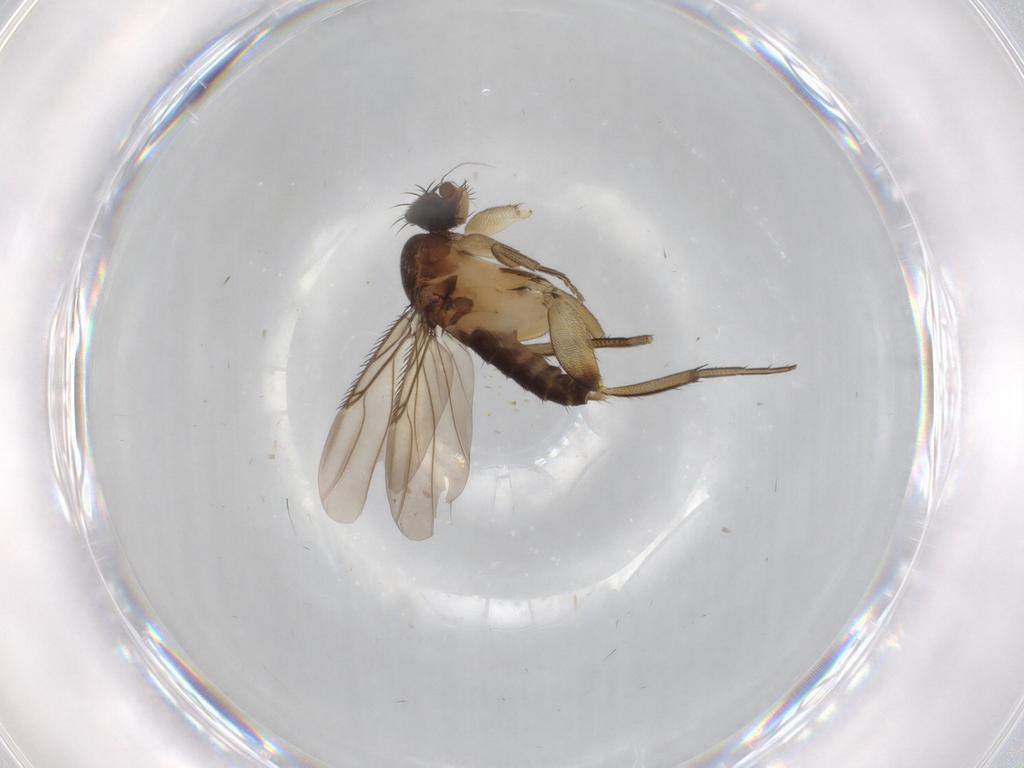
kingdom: Animalia
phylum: Arthropoda
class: Insecta
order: Diptera
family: Phoridae
